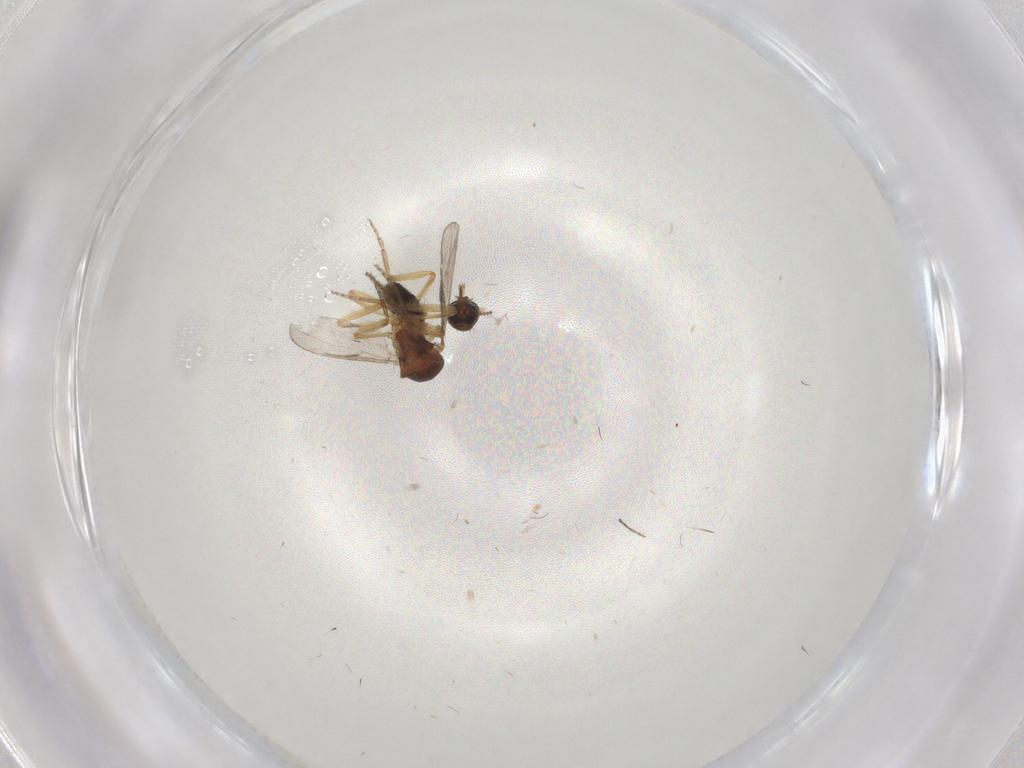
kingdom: Animalia
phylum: Arthropoda
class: Insecta
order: Diptera
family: Ceratopogonidae
